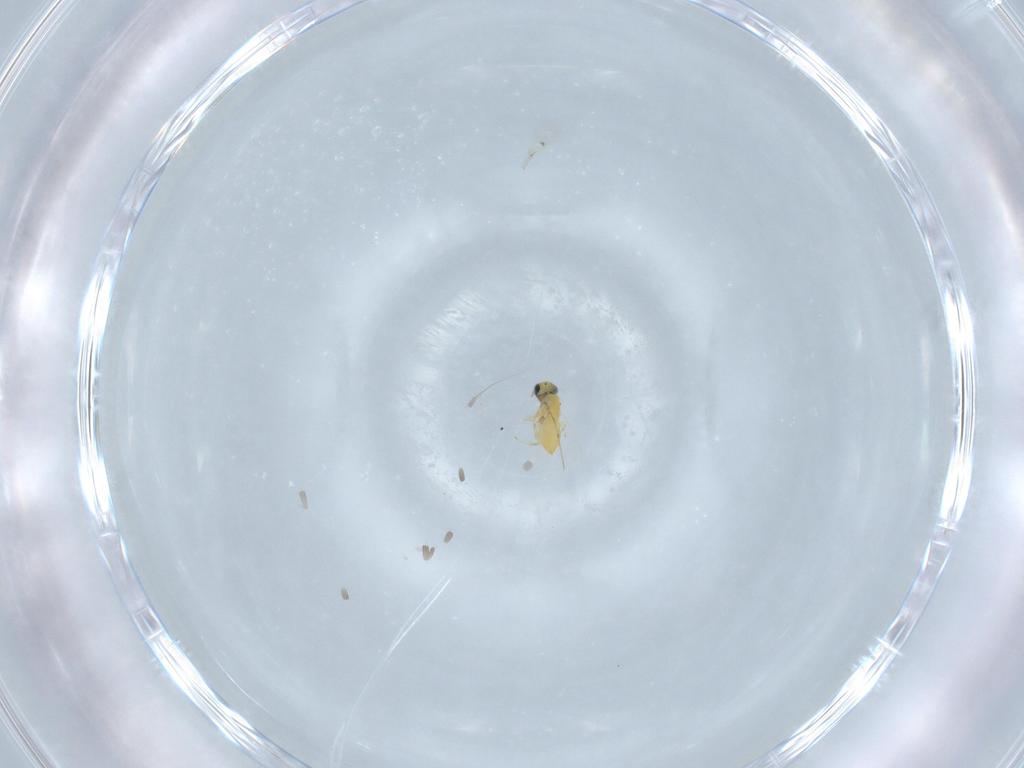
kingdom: Animalia
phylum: Arthropoda
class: Insecta
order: Hymenoptera
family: Trichogrammatidae
